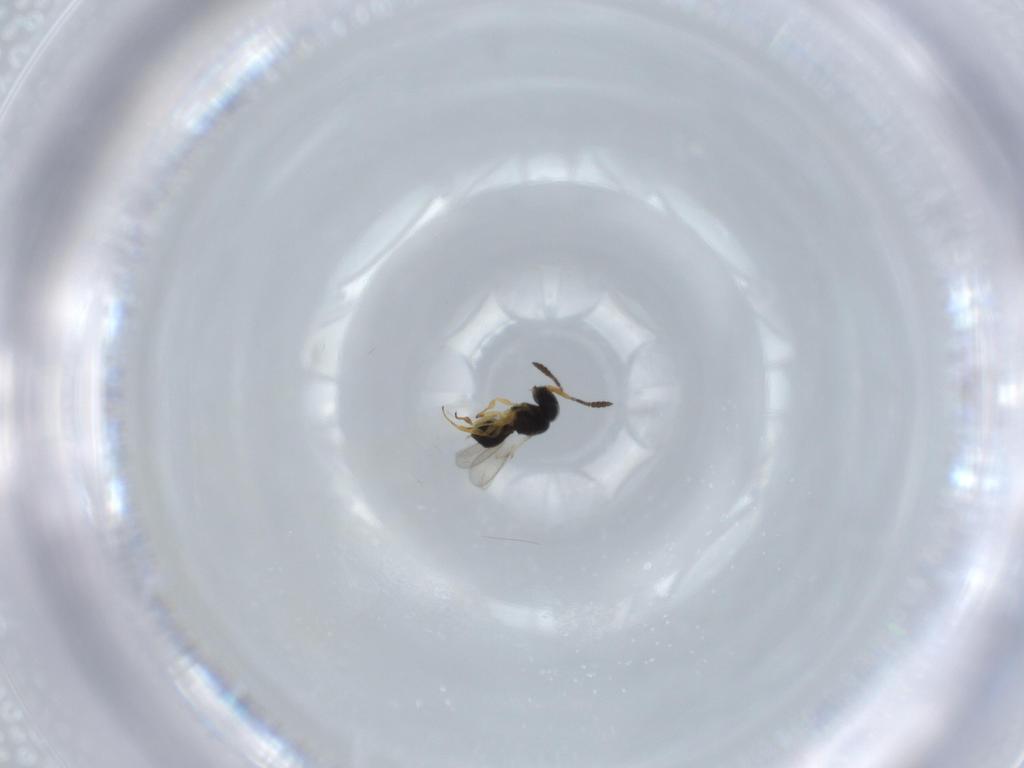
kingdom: Animalia
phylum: Arthropoda
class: Insecta
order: Hymenoptera
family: Scelionidae
